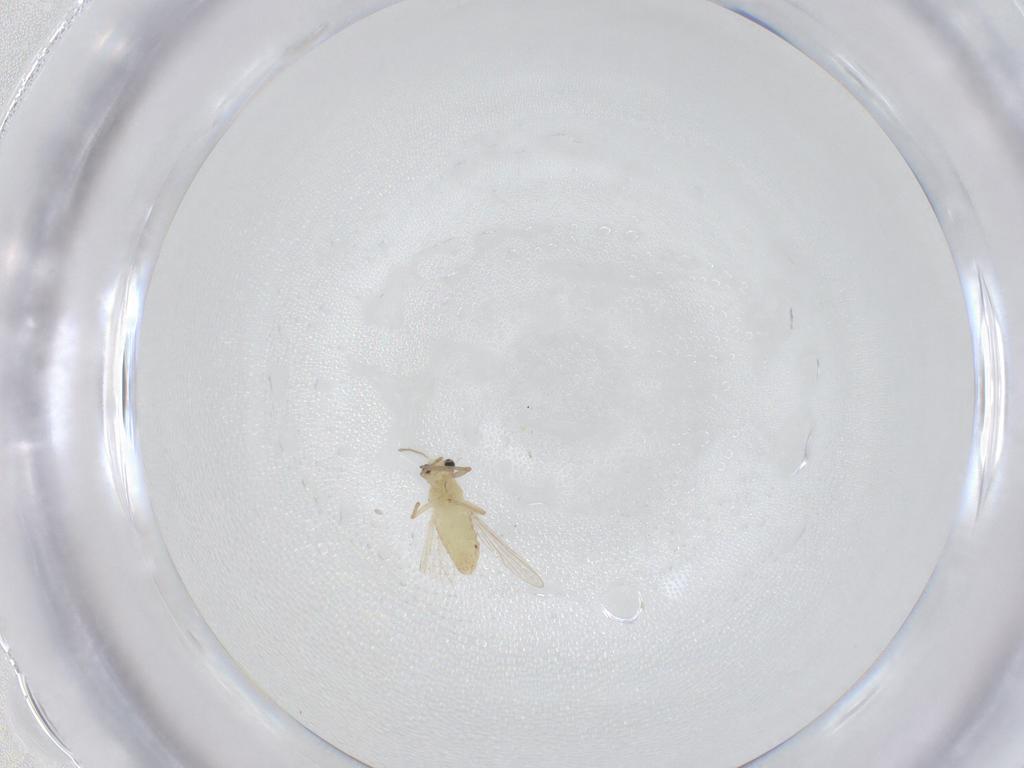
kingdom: Animalia
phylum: Arthropoda
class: Insecta
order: Diptera
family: Chironomidae
